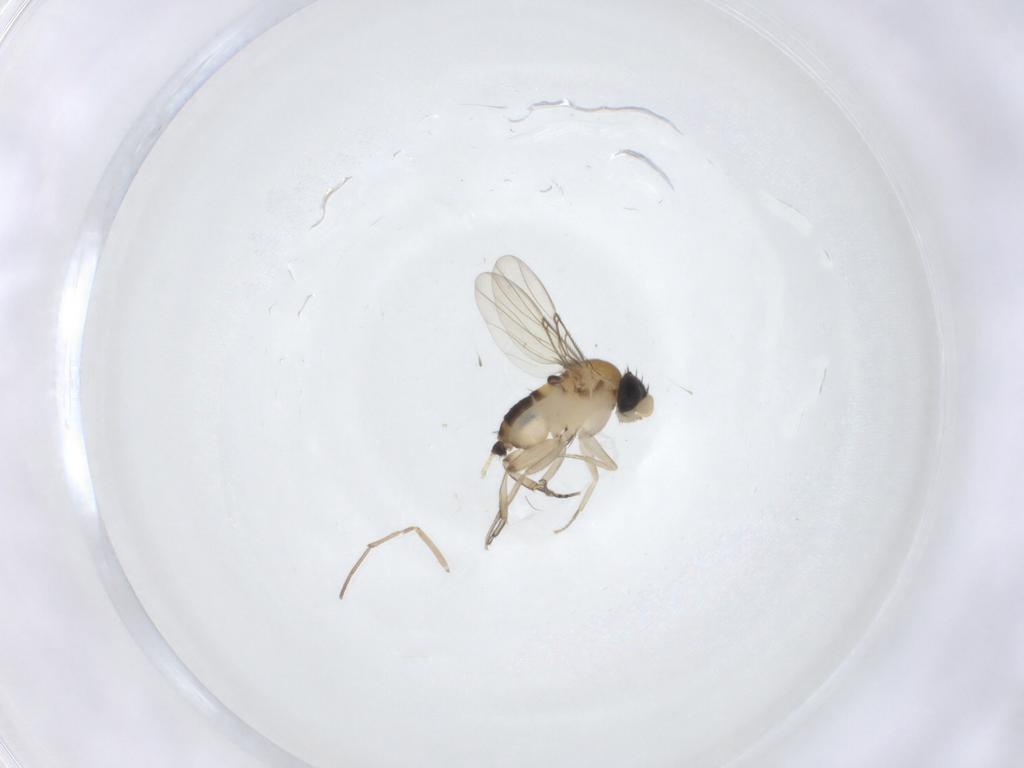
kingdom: Animalia
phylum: Arthropoda
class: Insecta
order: Diptera
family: Phoridae
